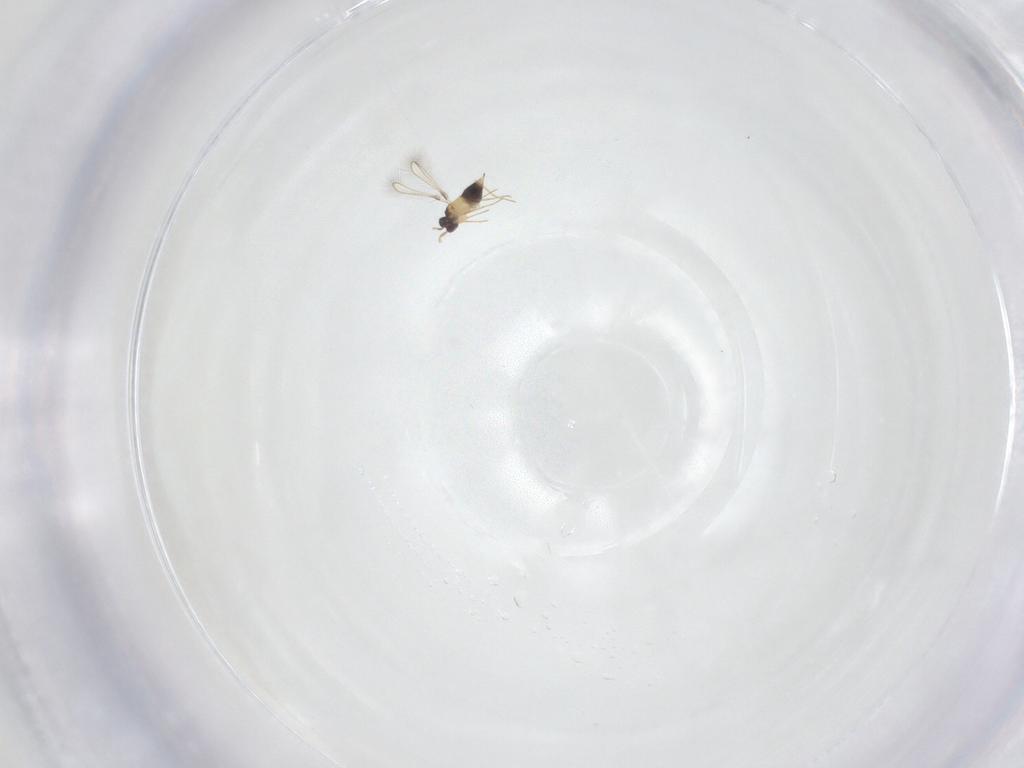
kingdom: Animalia
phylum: Arthropoda
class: Insecta
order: Diptera
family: Chloropidae
